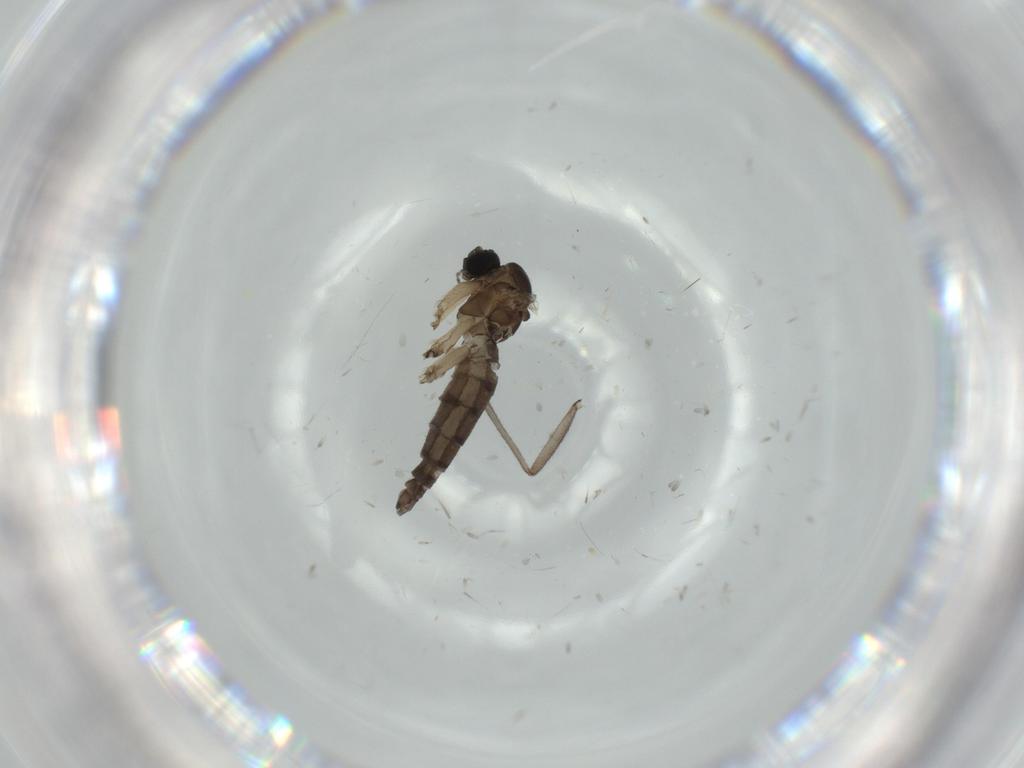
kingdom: Animalia
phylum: Arthropoda
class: Insecta
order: Diptera
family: Sciaridae
